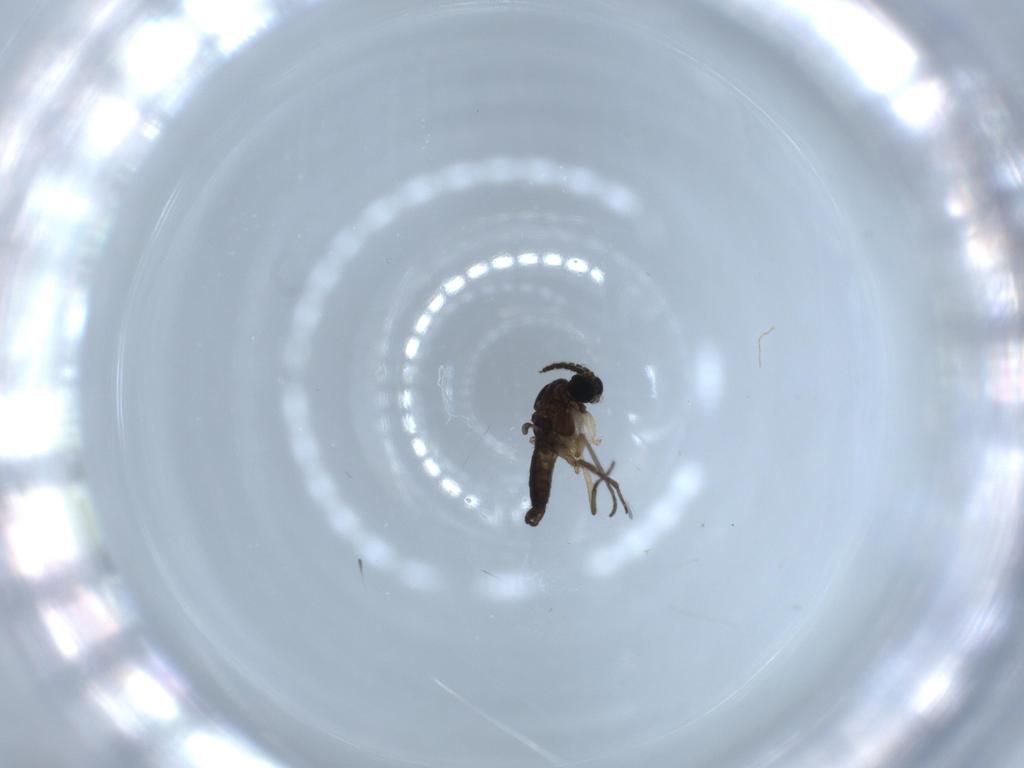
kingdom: Animalia
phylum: Arthropoda
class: Insecta
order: Diptera
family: Sciaridae
